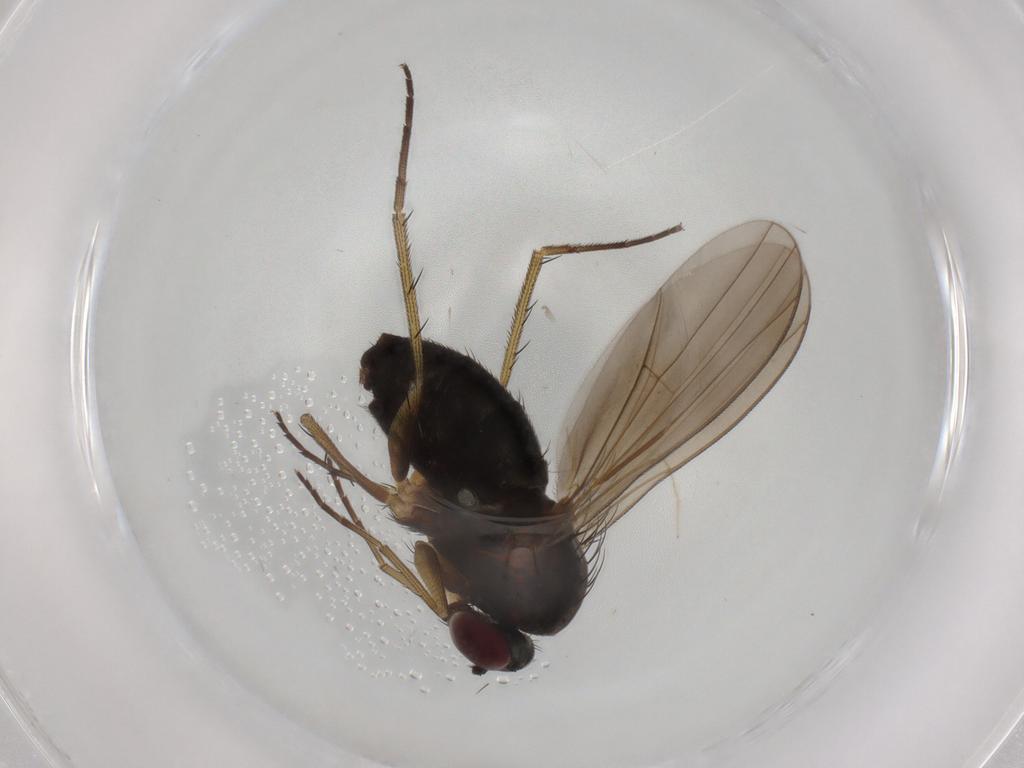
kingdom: Animalia
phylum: Arthropoda
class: Insecta
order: Diptera
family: Dolichopodidae
